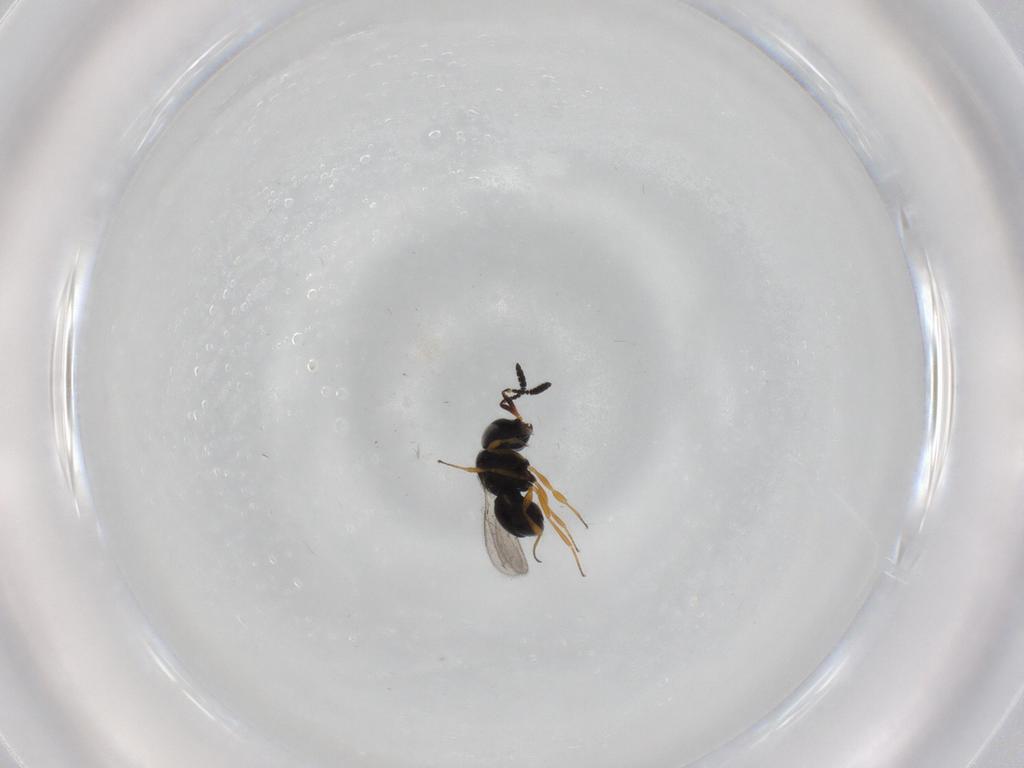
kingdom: Animalia
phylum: Arthropoda
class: Insecta
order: Hymenoptera
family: Scelionidae
